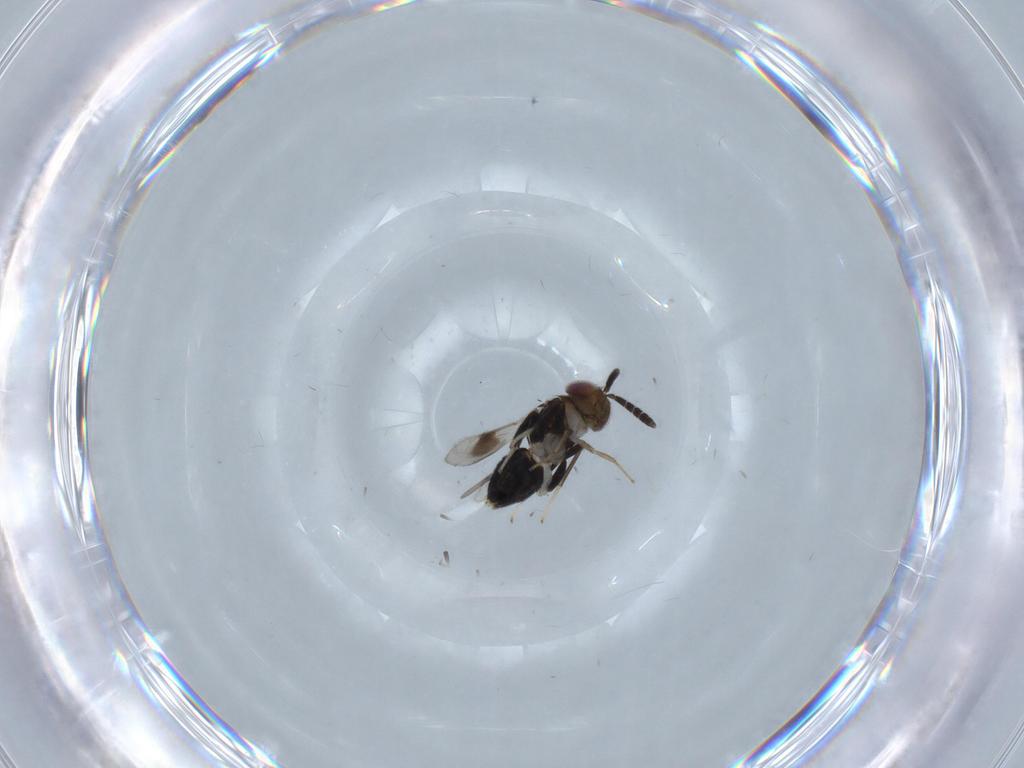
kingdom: Animalia
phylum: Arthropoda
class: Insecta
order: Hymenoptera
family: Aphelinidae
